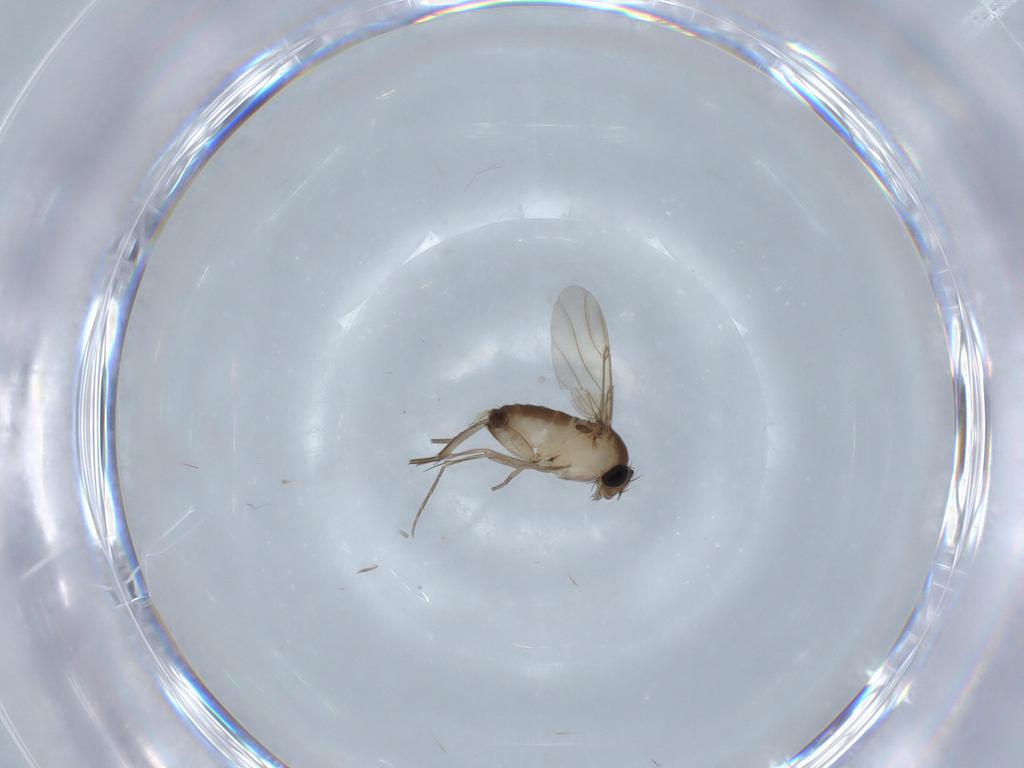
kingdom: Animalia
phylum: Arthropoda
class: Insecta
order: Diptera
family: Phoridae
